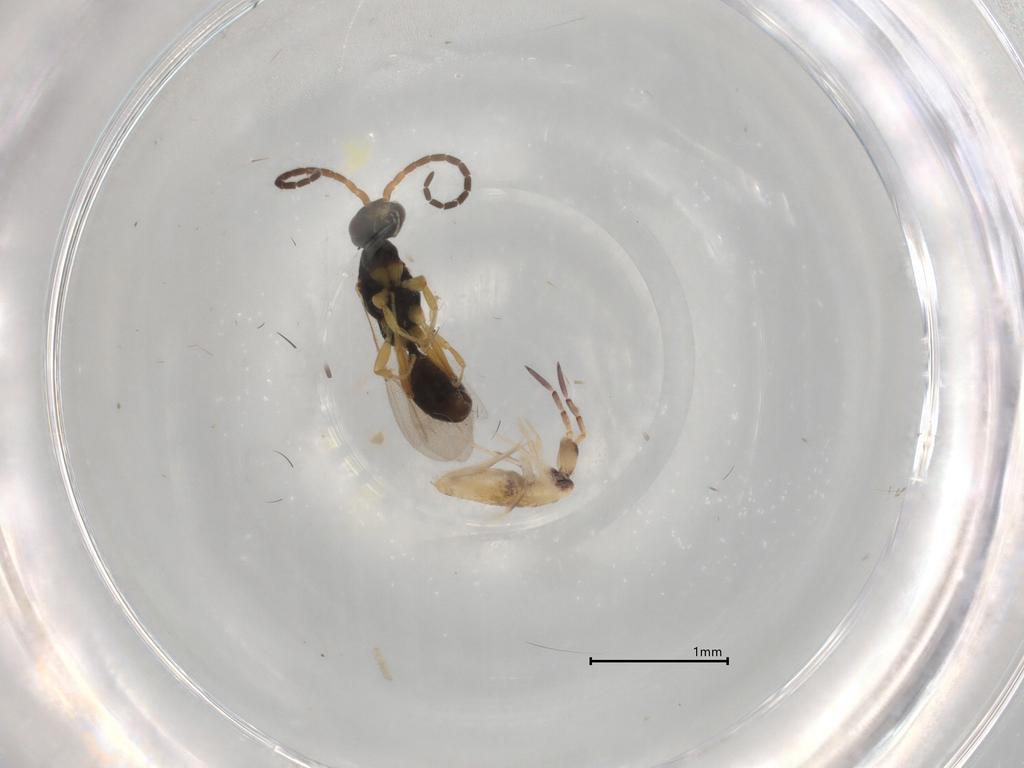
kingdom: Animalia
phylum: Arthropoda
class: Insecta
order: Hymenoptera
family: Bethylidae
